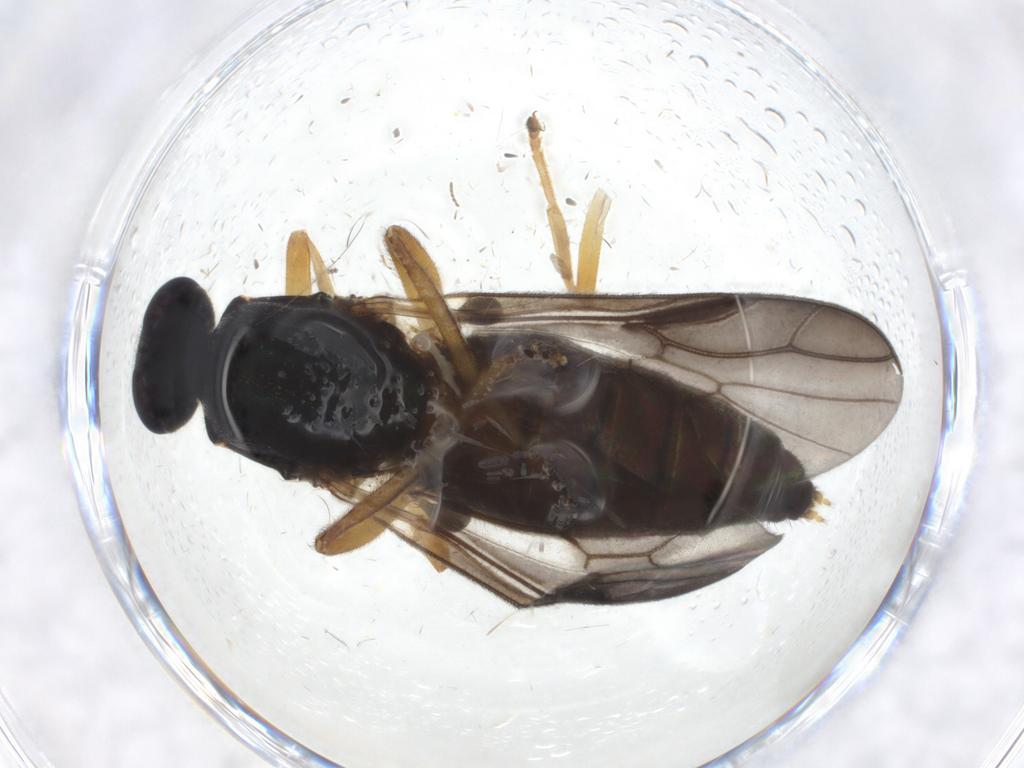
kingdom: Animalia
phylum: Arthropoda
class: Insecta
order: Diptera
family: Stratiomyidae
